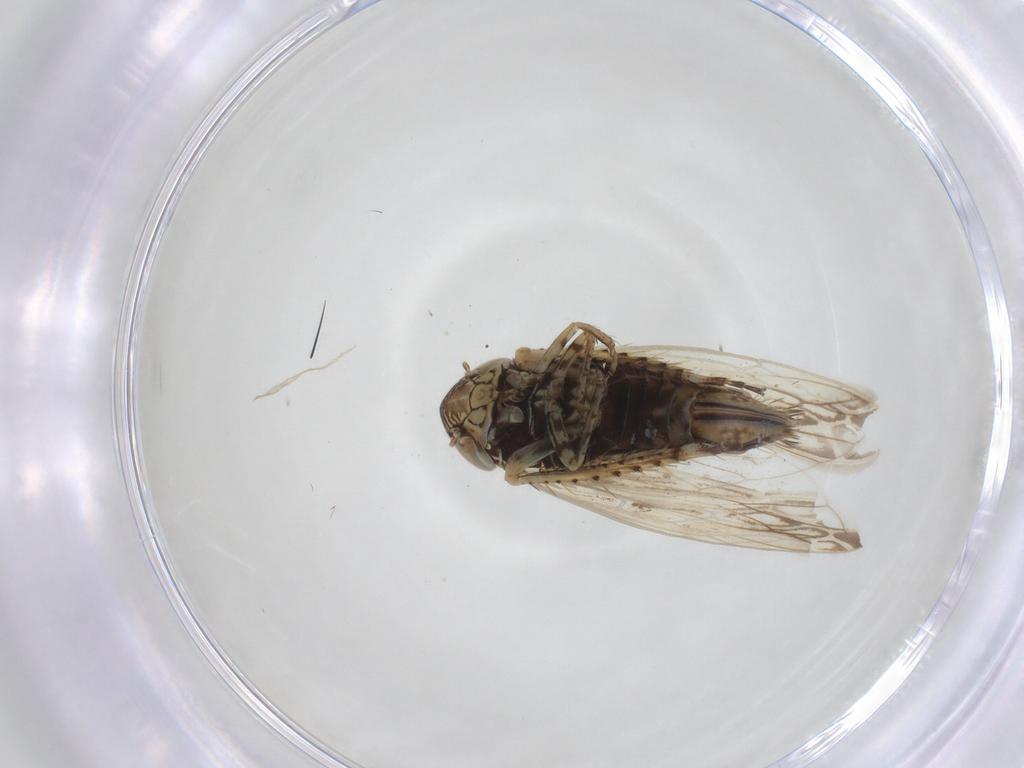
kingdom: Animalia
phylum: Arthropoda
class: Insecta
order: Hemiptera
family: Cicadellidae
